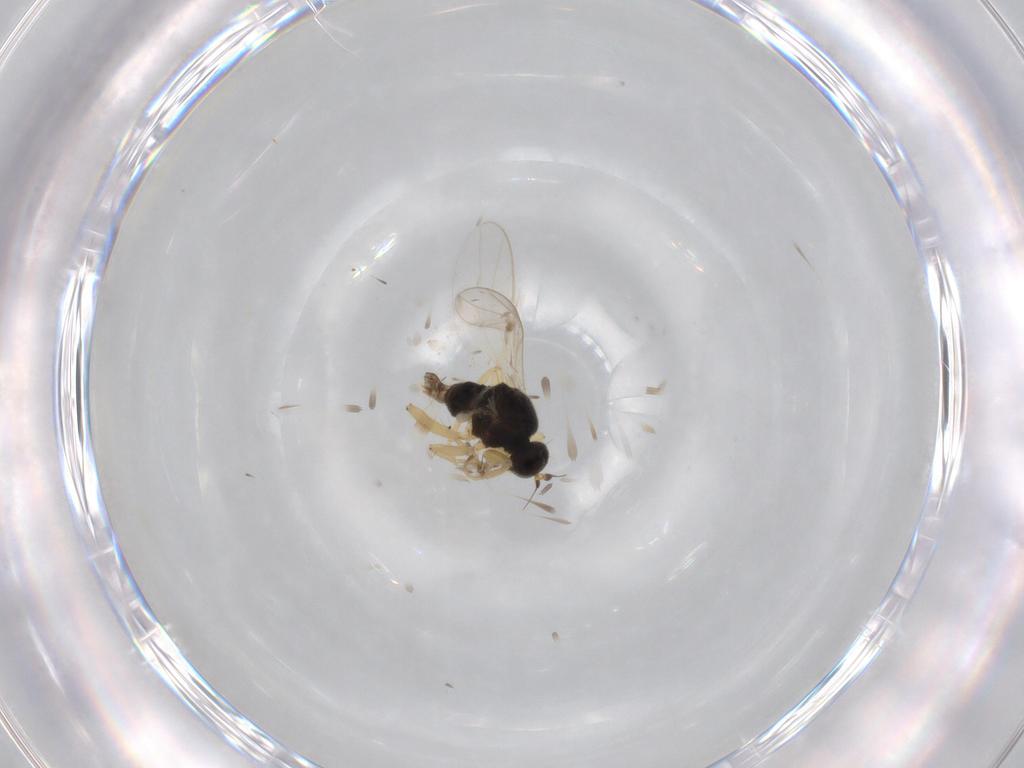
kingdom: Animalia
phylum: Arthropoda
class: Insecta
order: Diptera
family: Hybotidae
